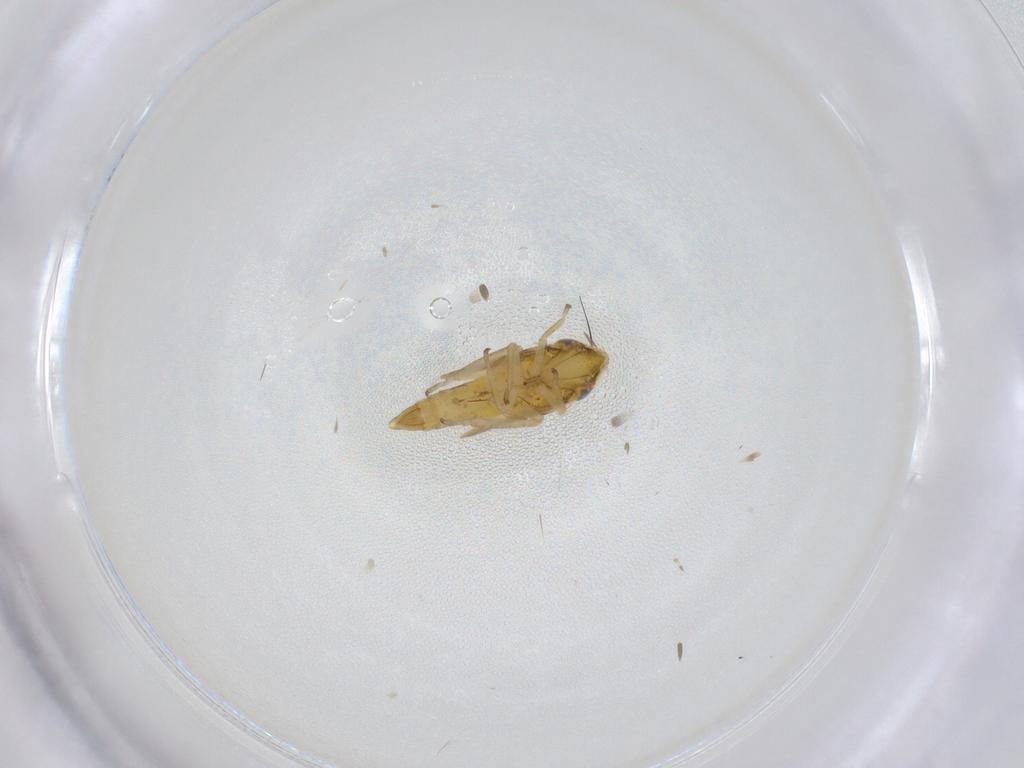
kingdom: Animalia
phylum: Arthropoda
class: Insecta
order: Hemiptera
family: Cicadellidae
